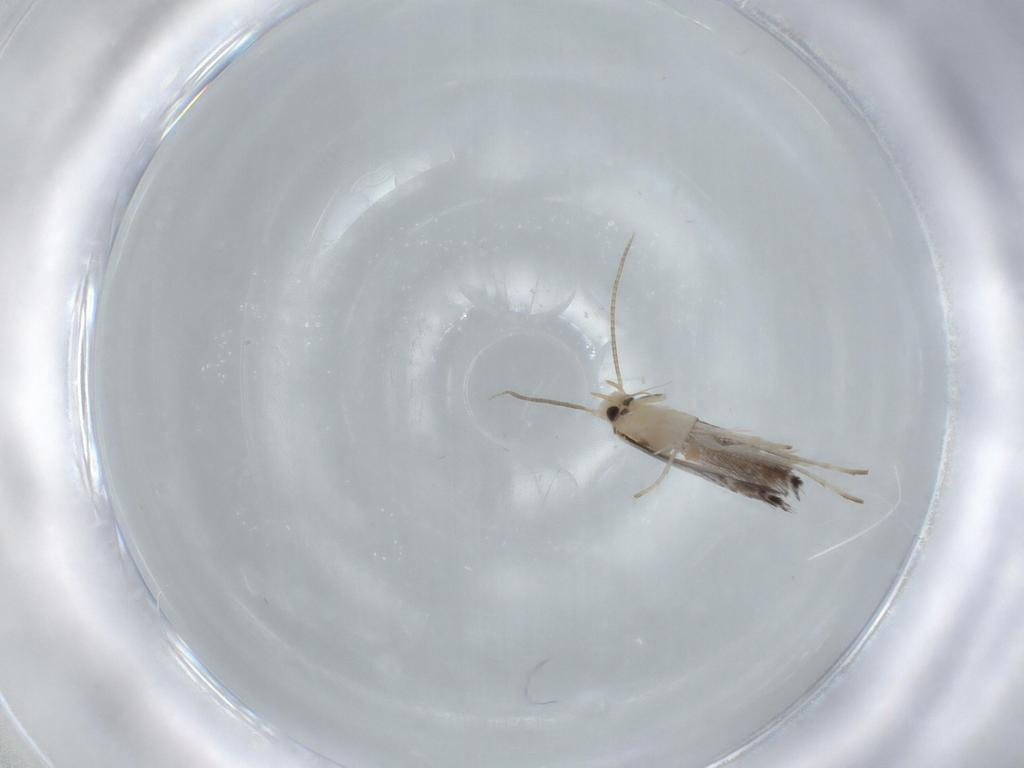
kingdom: Animalia
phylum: Arthropoda
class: Insecta
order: Lepidoptera
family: Gracillariidae
